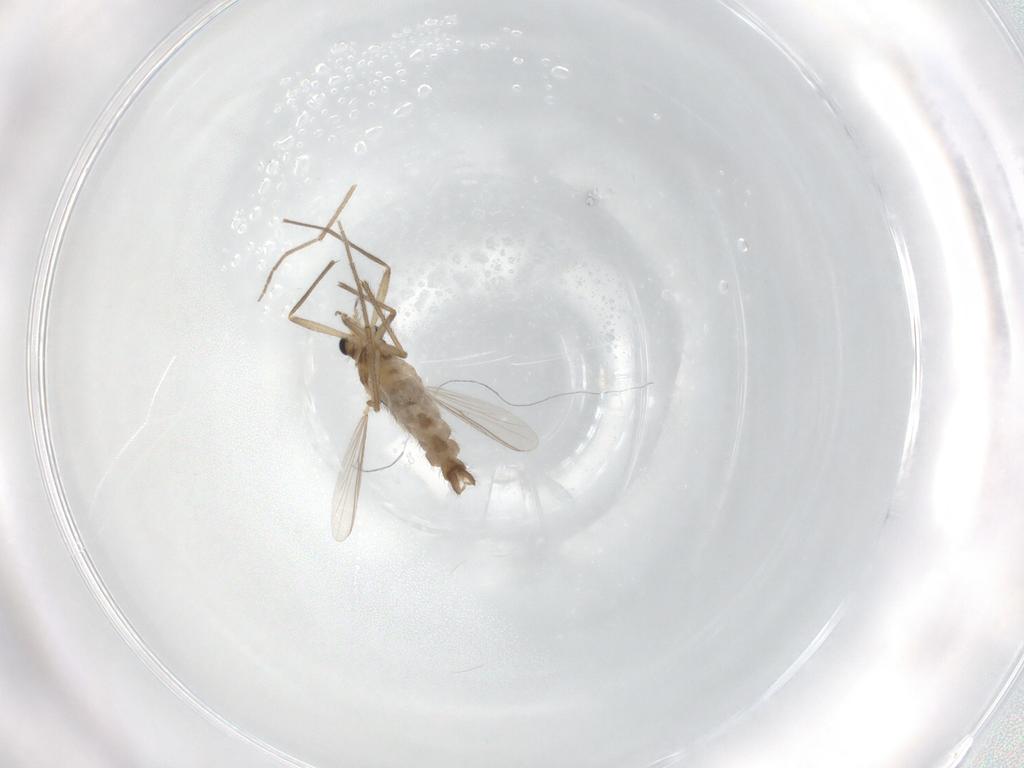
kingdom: Animalia
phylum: Arthropoda
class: Insecta
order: Diptera
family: Chironomidae
